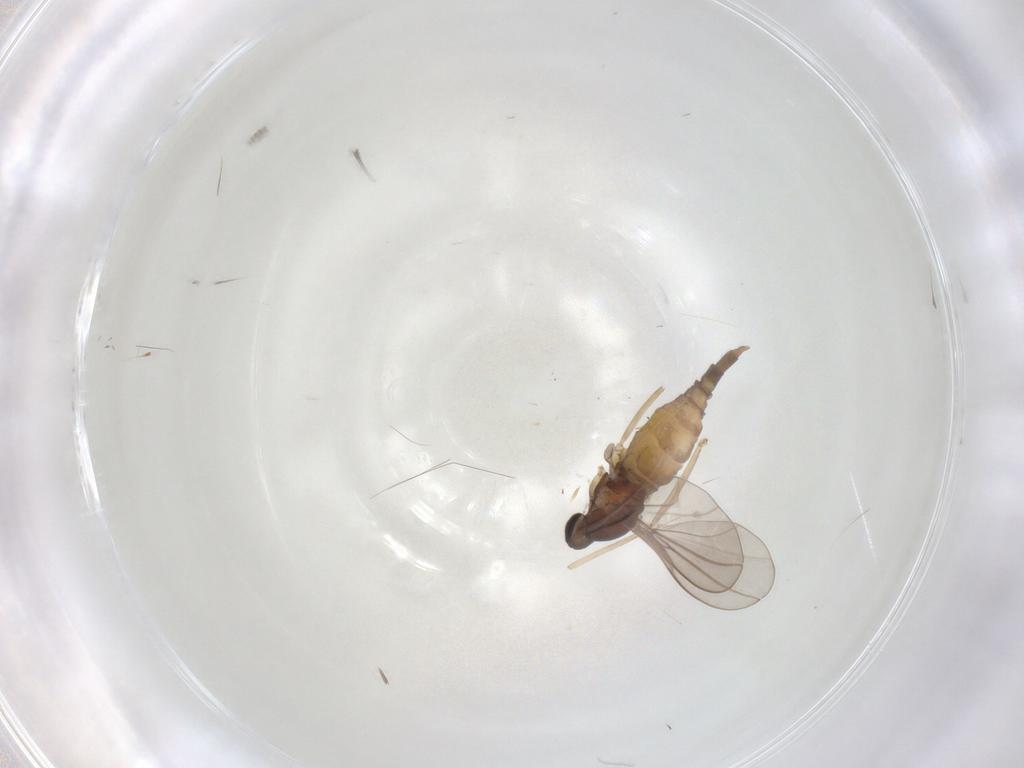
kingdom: Animalia
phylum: Arthropoda
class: Insecta
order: Diptera
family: Cecidomyiidae
